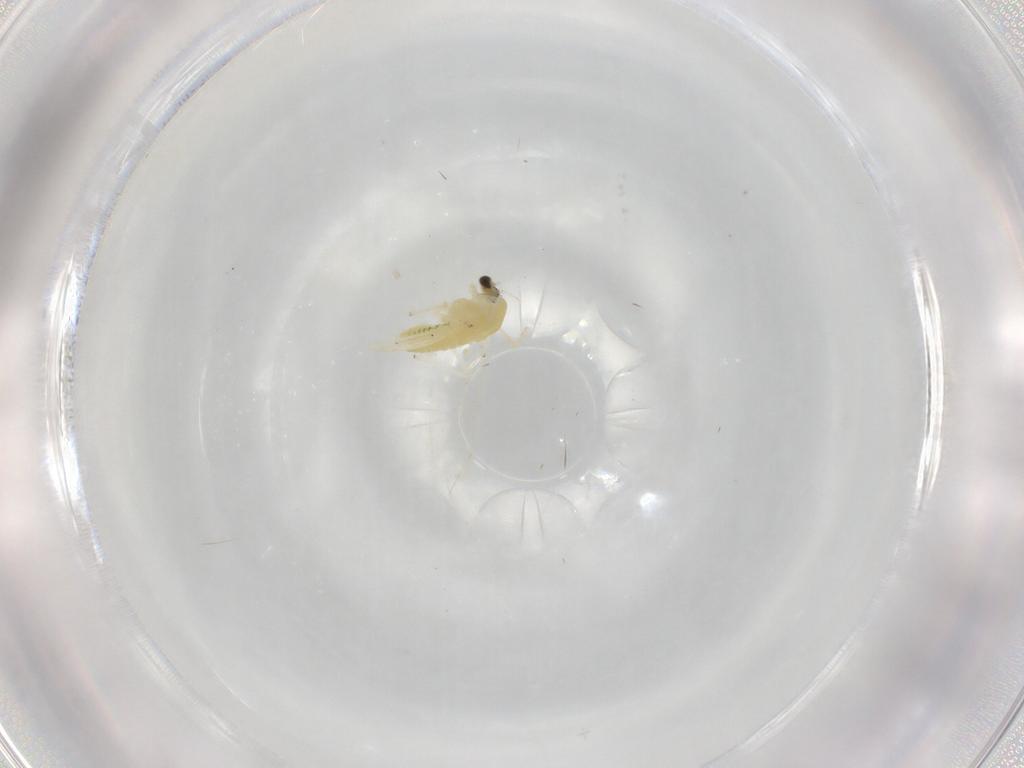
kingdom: Animalia
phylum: Arthropoda
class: Insecta
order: Diptera
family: Chironomidae
